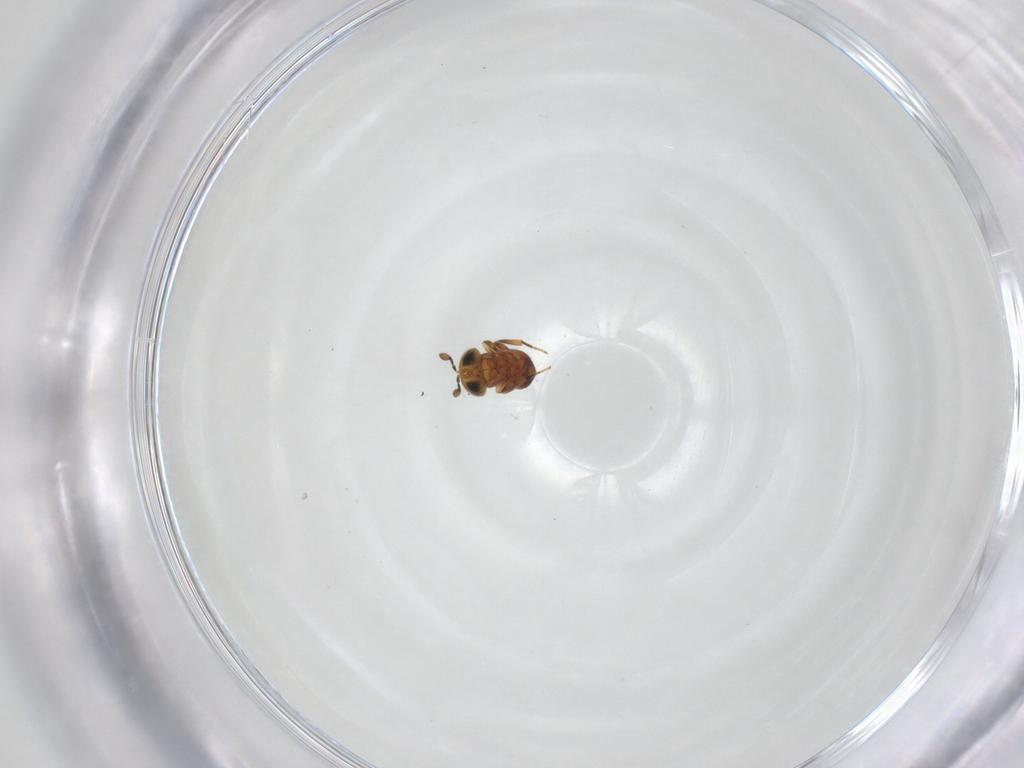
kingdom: Animalia
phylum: Arthropoda
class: Insecta
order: Hymenoptera
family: Scelionidae
